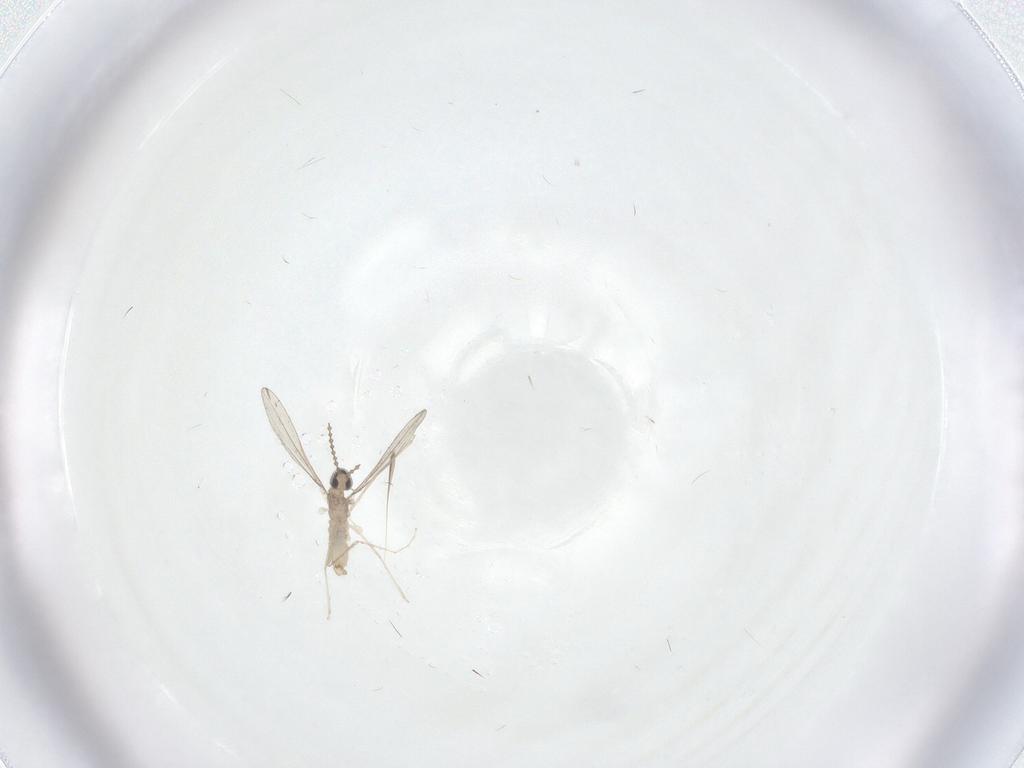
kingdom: Animalia
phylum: Arthropoda
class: Insecta
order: Diptera
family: Cecidomyiidae
